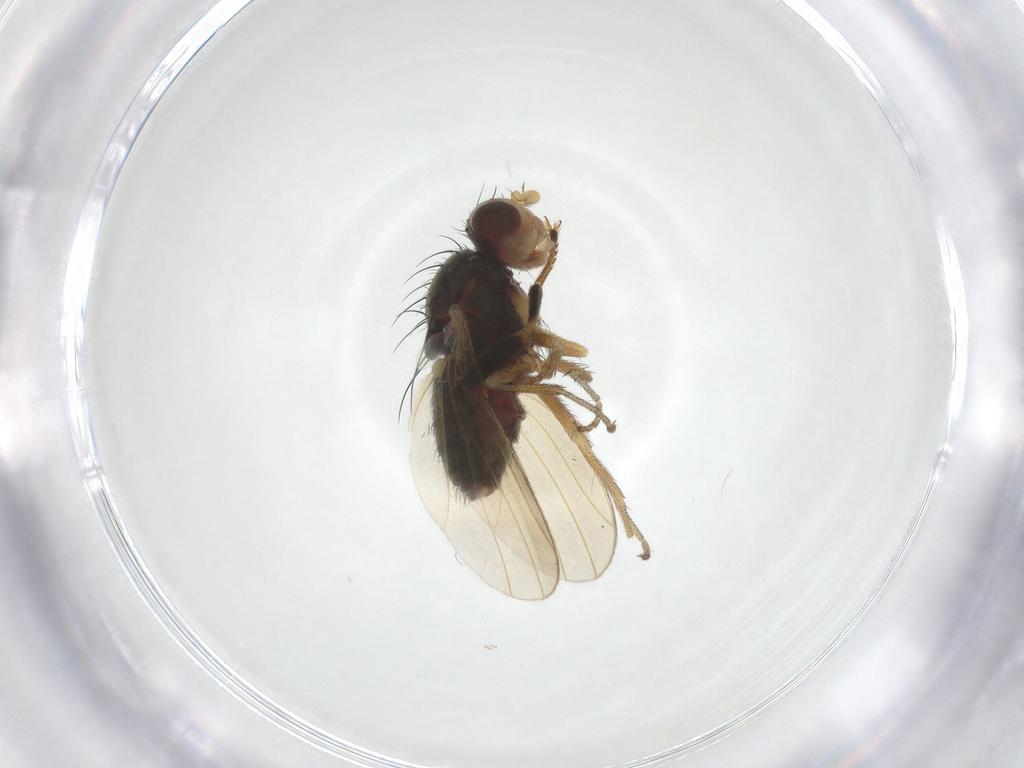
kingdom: Animalia
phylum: Arthropoda
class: Insecta
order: Diptera
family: Heleomyzidae
